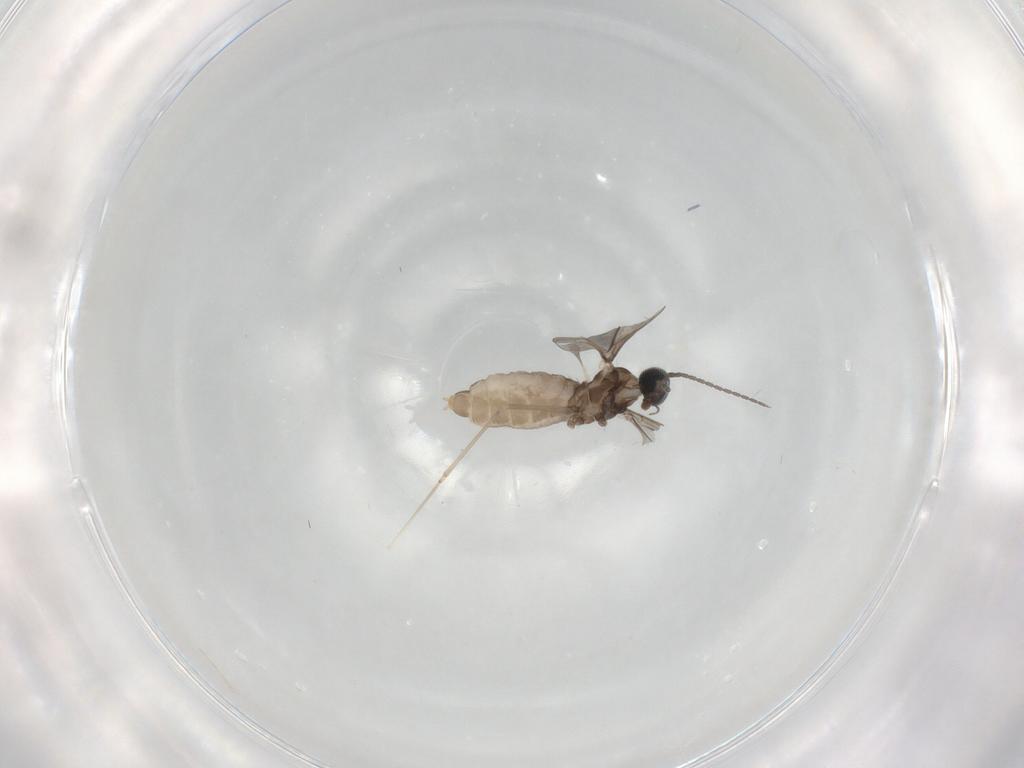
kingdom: Animalia
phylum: Arthropoda
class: Insecta
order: Diptera
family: Cecidomyiidae
